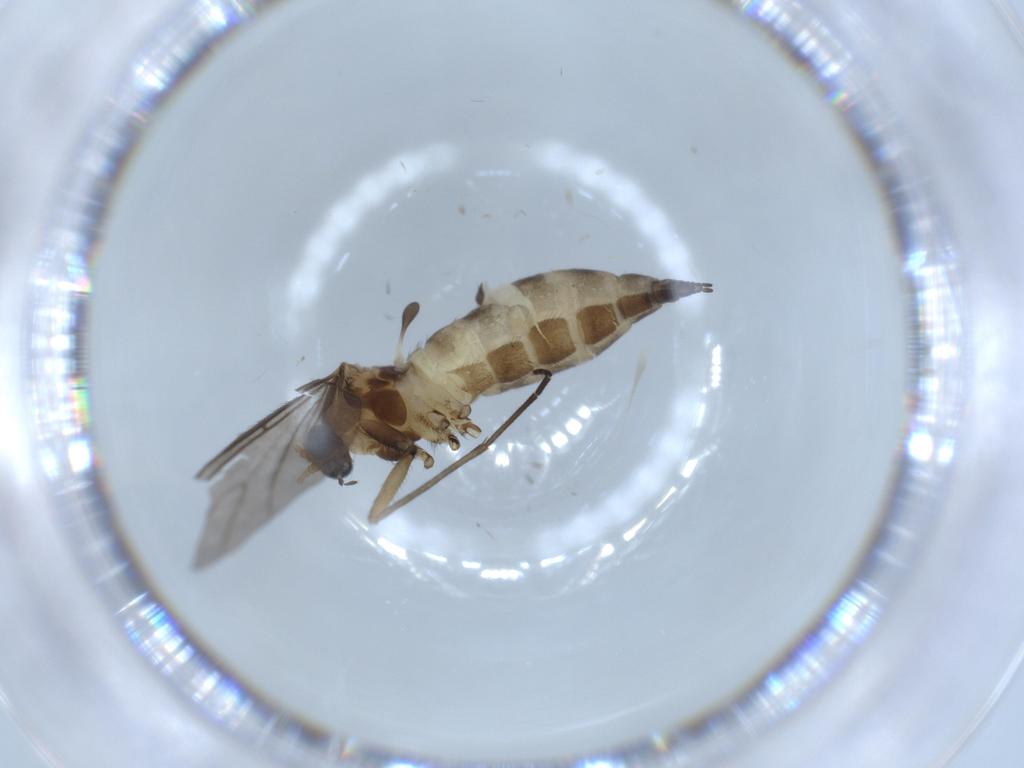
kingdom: Animalia
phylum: Arthropoda
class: Insecta
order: Diptera
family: Sciaridae
